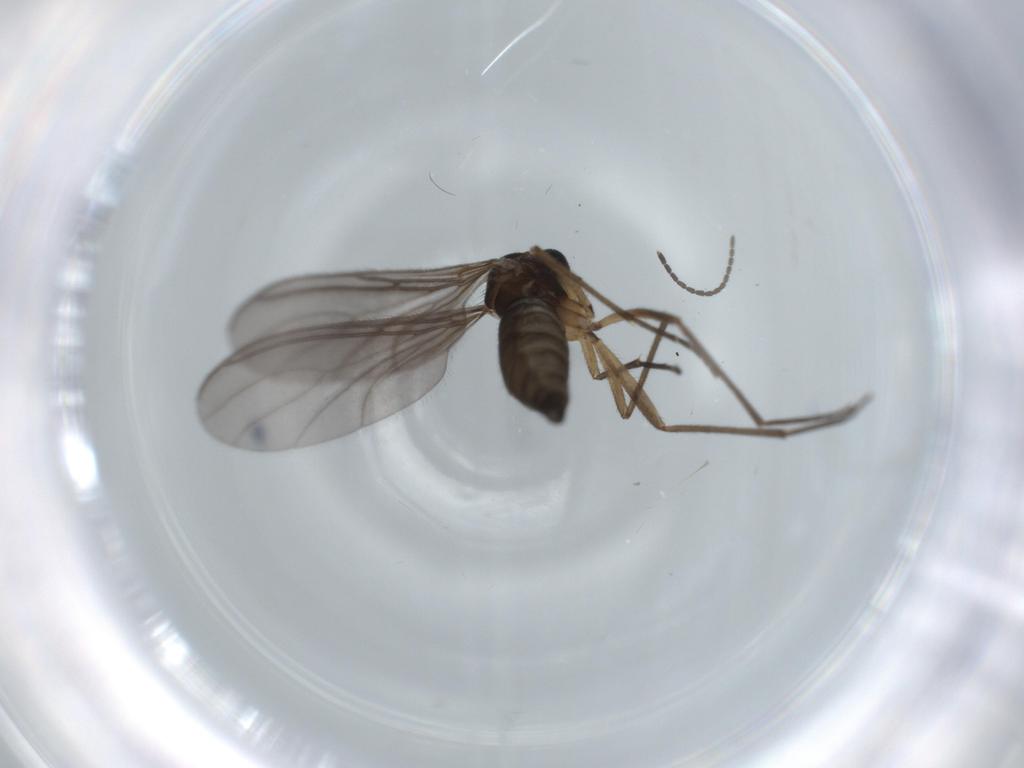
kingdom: Animalia
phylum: Arthropoda
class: Insecta
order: Diptera
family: Sciaridae
